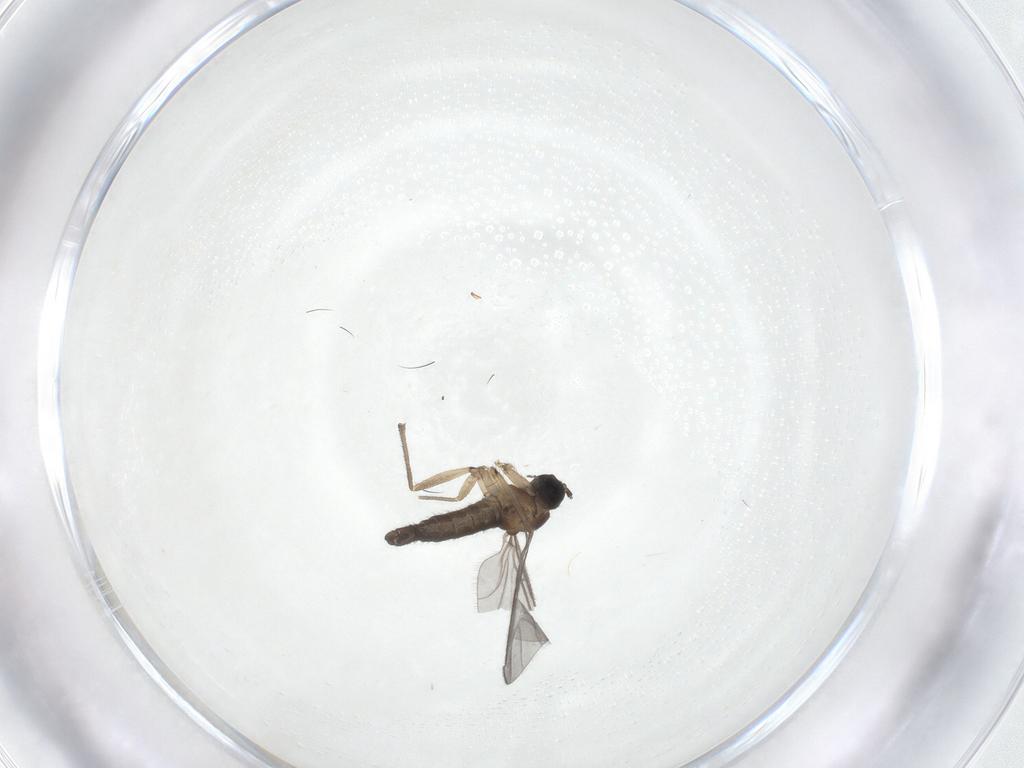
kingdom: Animalia
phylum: Arthropoda
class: Insecta
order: Diptera
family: Sciaridae
